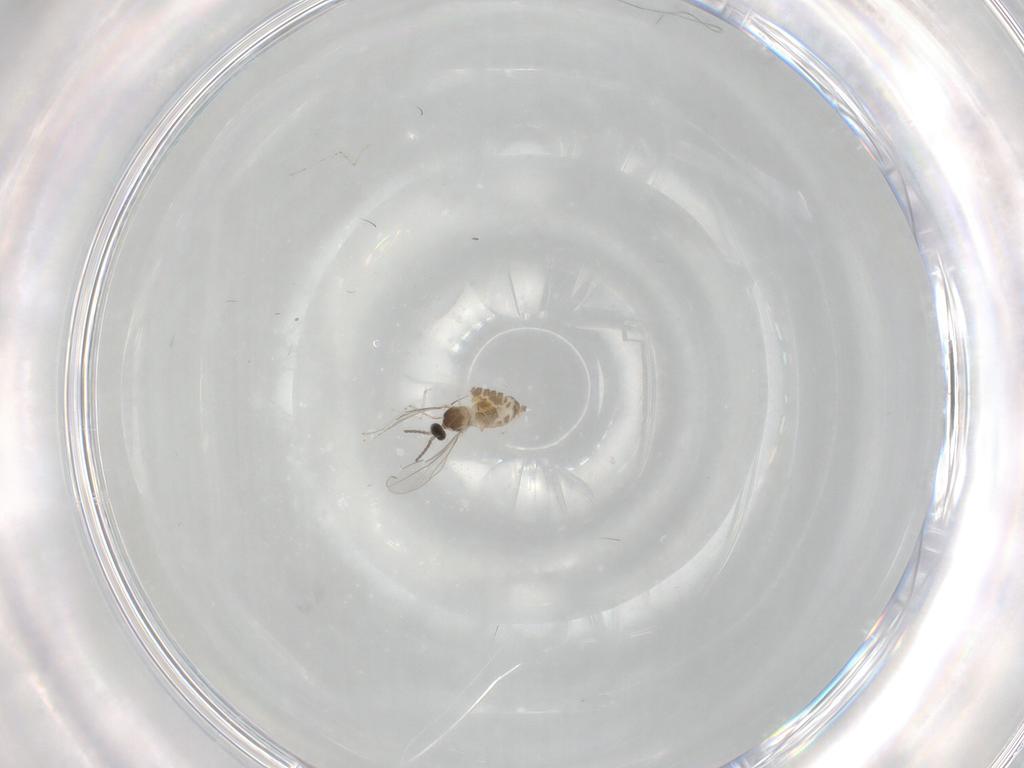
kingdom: Animalia
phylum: Arthropoda
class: Insecta
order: Diptera
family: Cecidomyiidae
